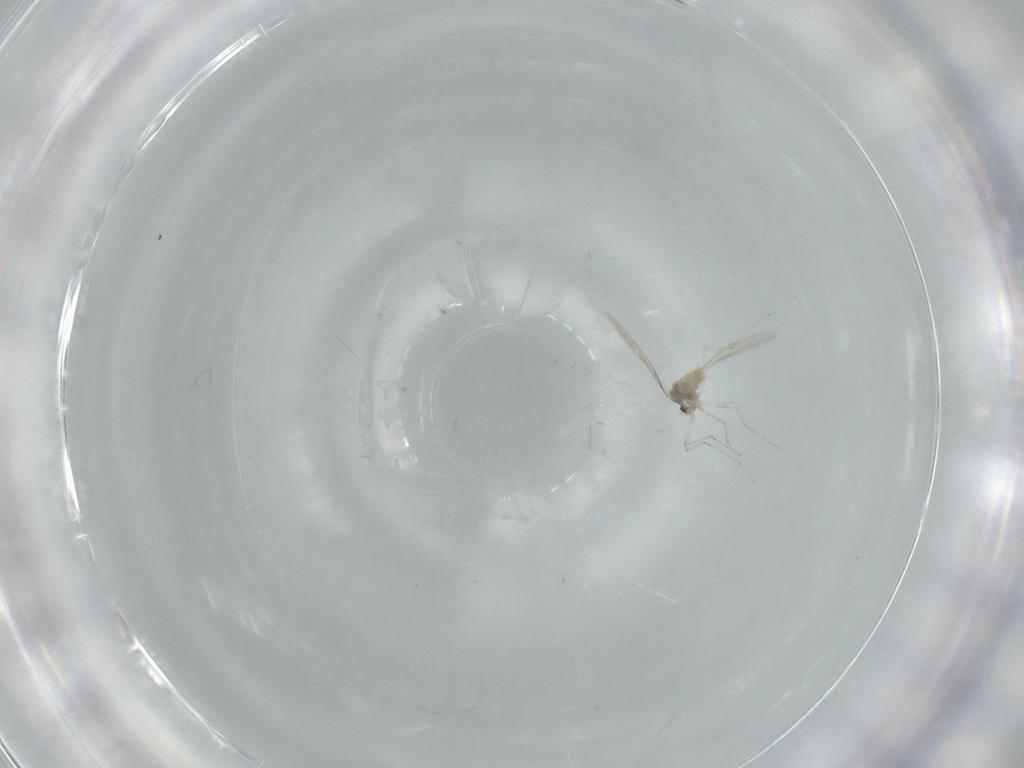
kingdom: Animalia
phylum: Arthropoda
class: Insecta
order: Diptera
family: Cecidomyiidae
